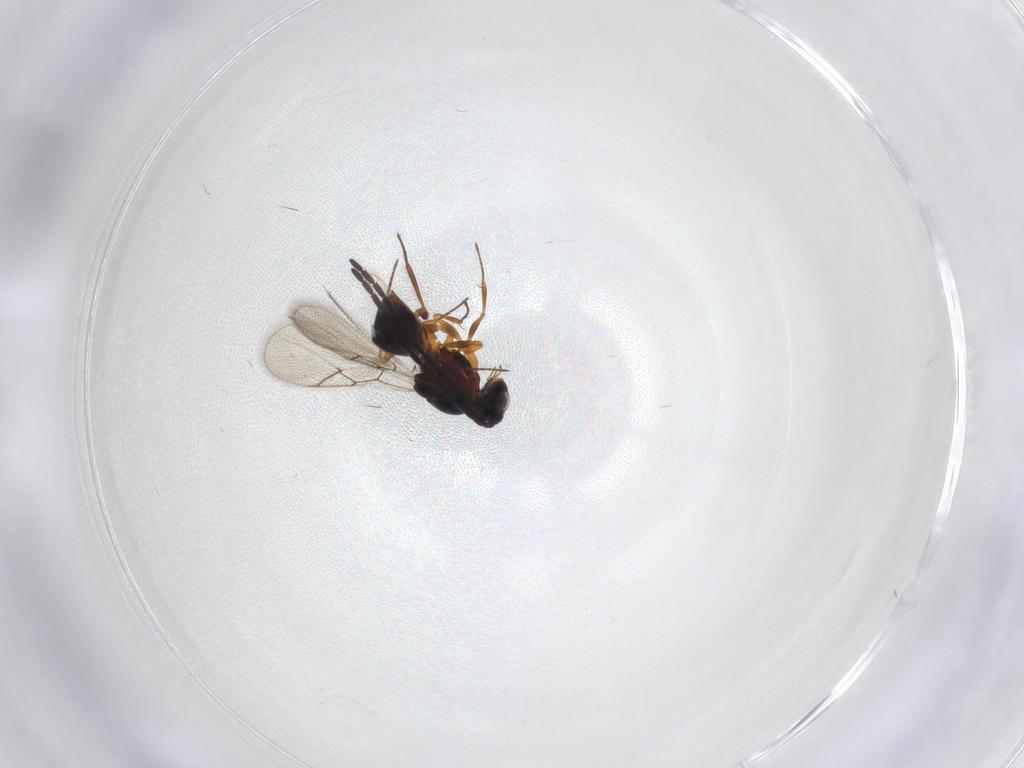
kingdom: Animalia
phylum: Arthropoda
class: Insecta
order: Hymenoptera
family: Figitidae
